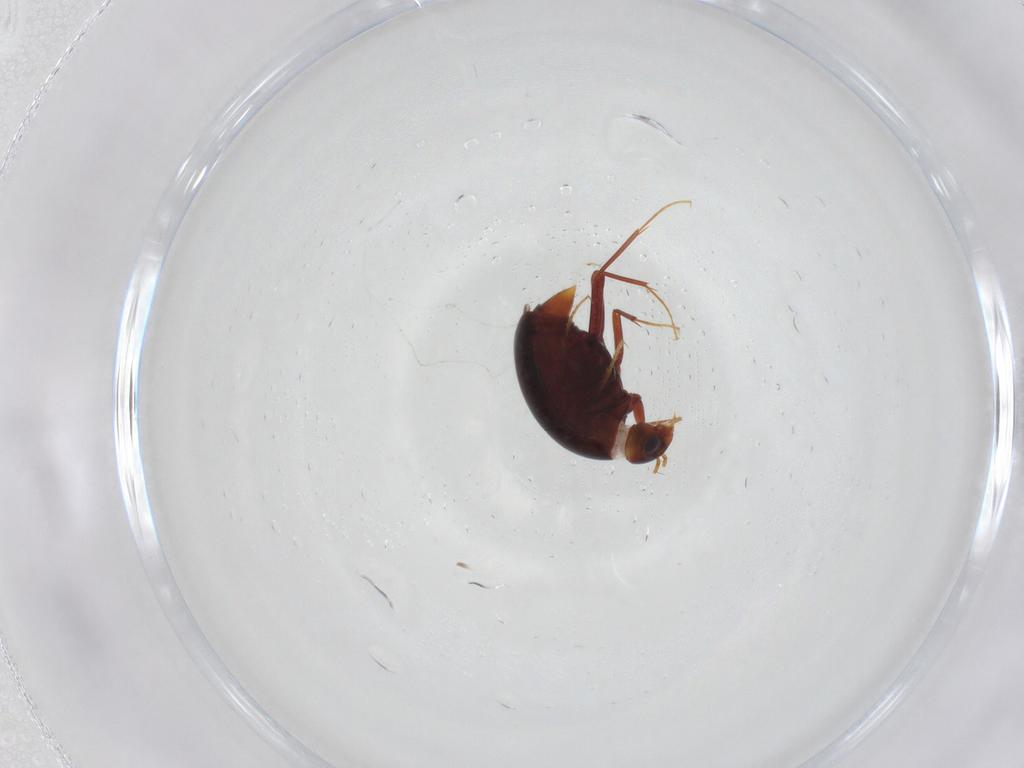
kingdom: Animalia
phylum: Arthropoda
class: Insecta
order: Coleoptera
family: Staphylinidae
